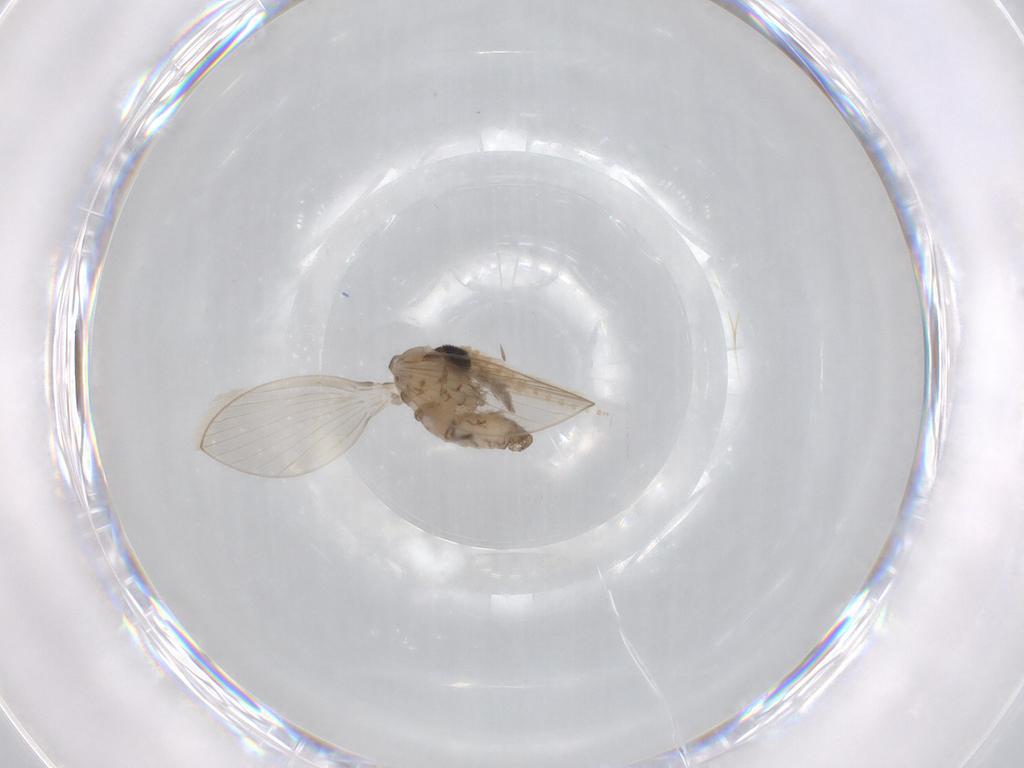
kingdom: Animalia
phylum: Arthropoda
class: Insecta
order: Diptera
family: Psychodidae
